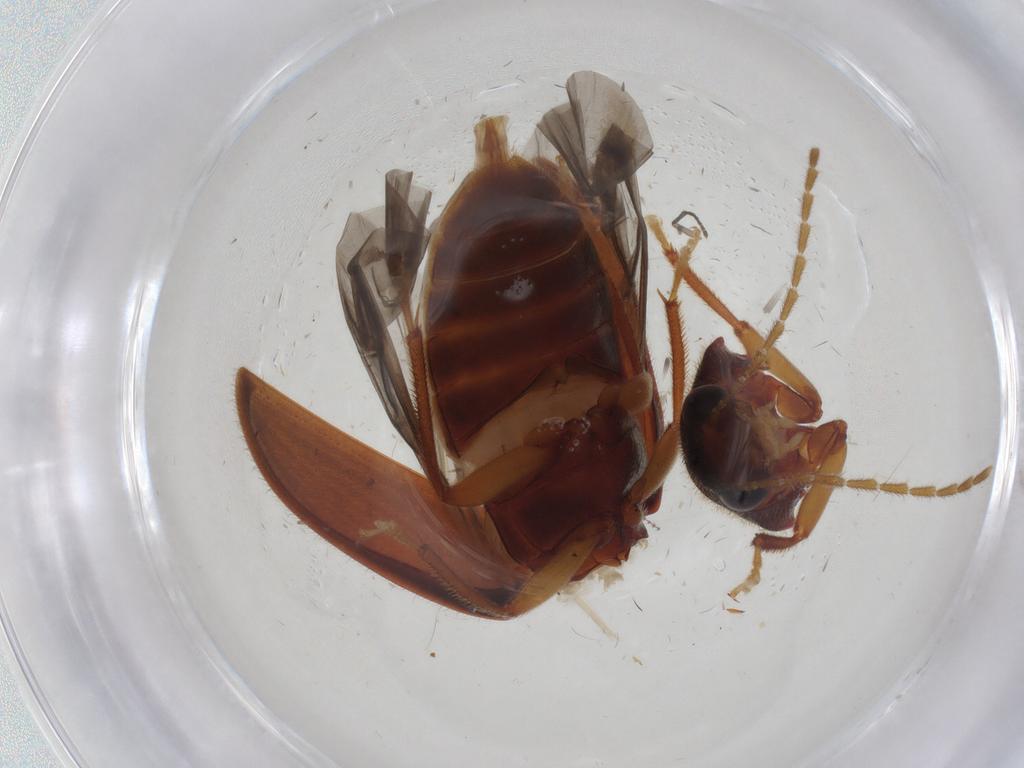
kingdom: Animalia
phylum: Arthropoda
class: Insecta
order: Coleoptera
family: Ptilodactylidae
